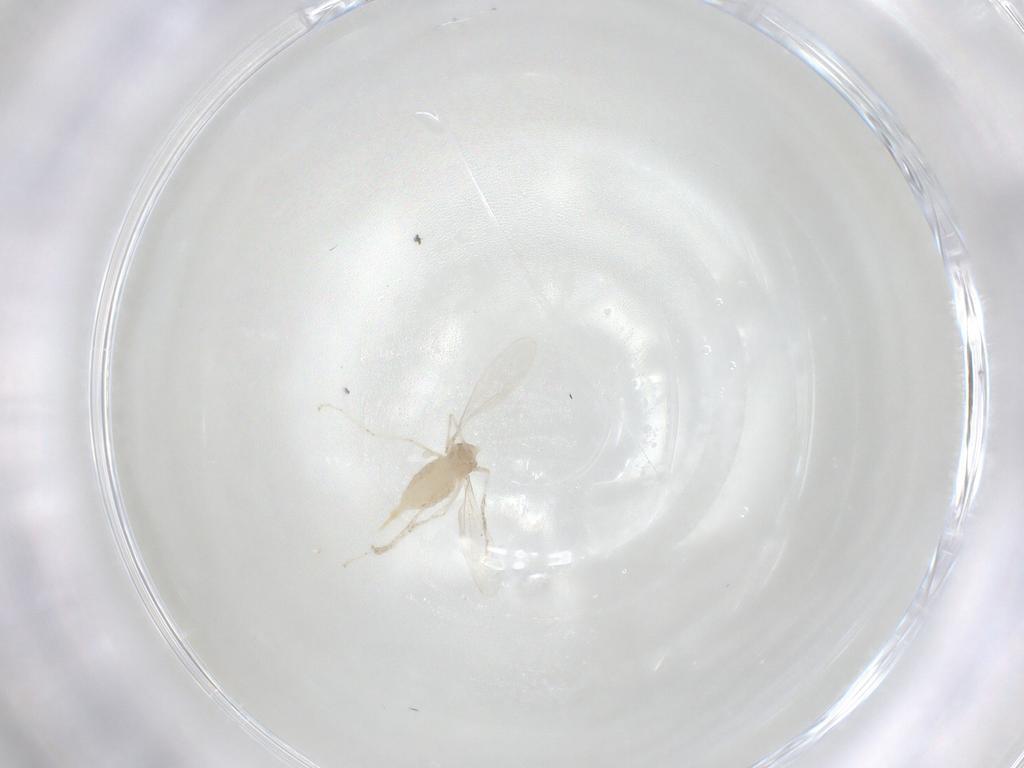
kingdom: Animalia
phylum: Arthropoda
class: Insecta
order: Diptera
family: Cecidomyiidae
